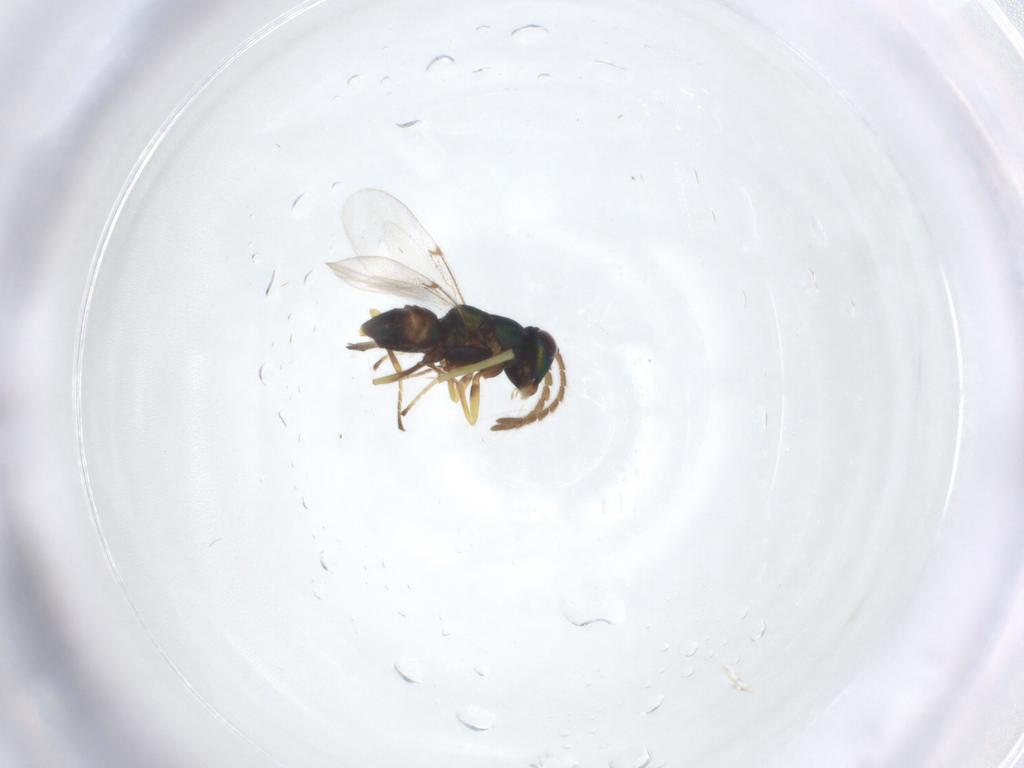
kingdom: Animalia
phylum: Arthropoda
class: Insecta
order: Hymenoptera
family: Encyrtidae
